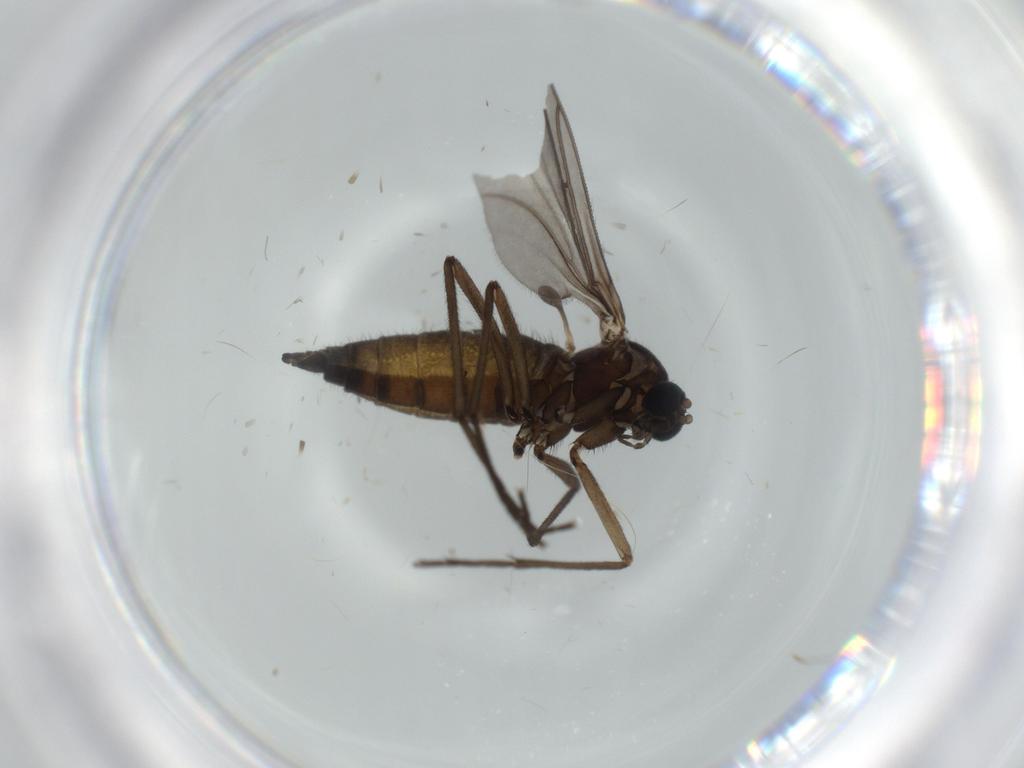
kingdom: Animalia
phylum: Arthropoda
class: Insecta
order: Diptera
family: Sciaridae
